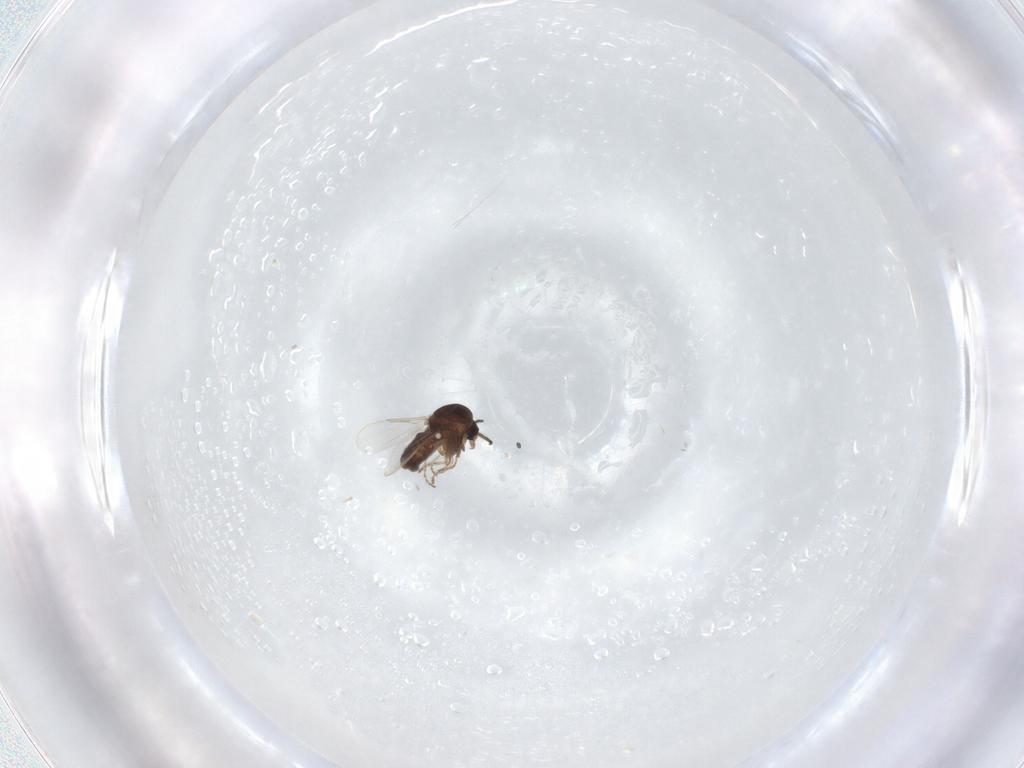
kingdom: Animalia
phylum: Arthropoda
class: Insecta
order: Diptera
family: Ceratopogonidae
